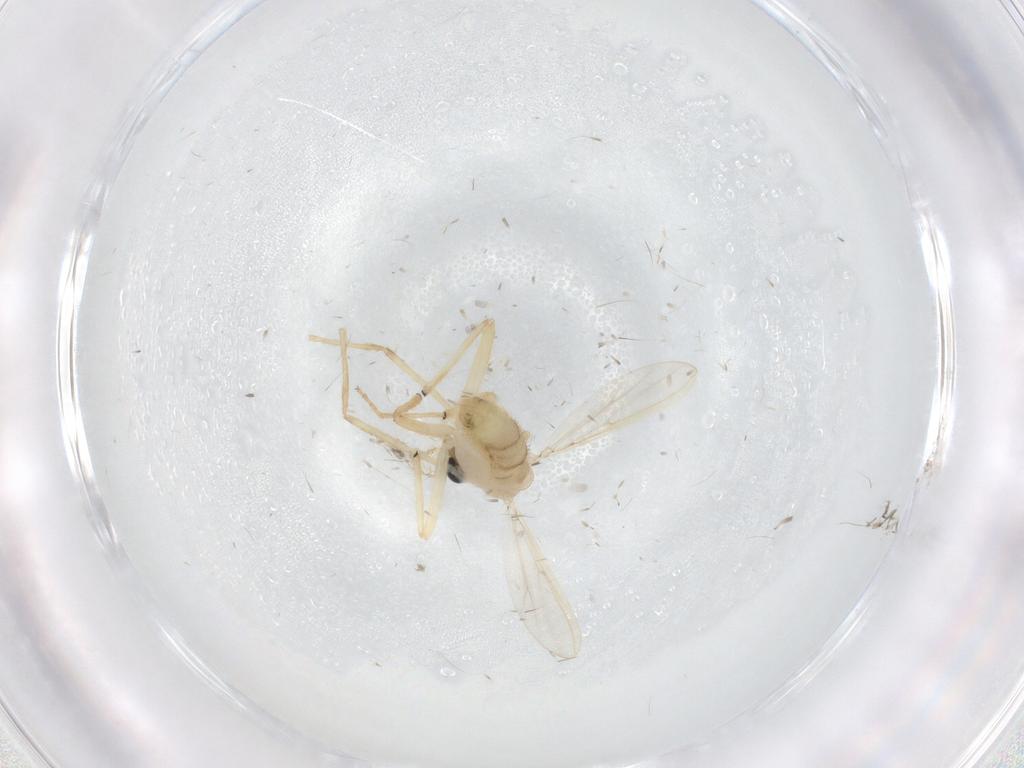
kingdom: Animalia
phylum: Arthropoda
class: Insecta
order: Diptera
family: Chironomidae
